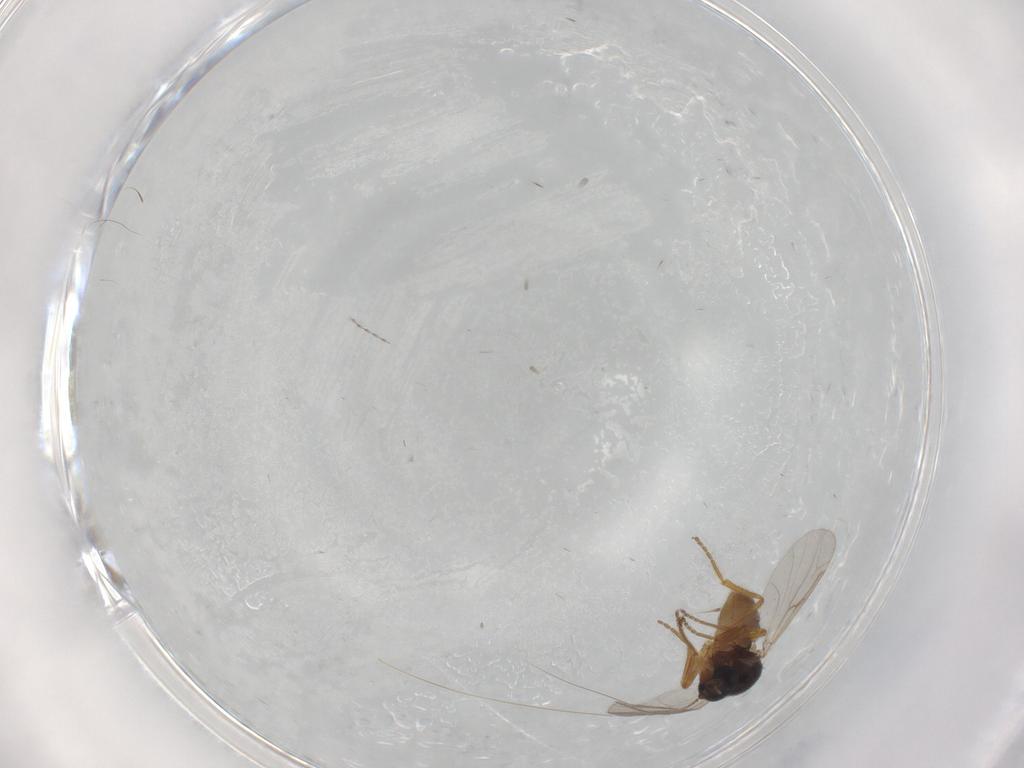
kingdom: Animalia
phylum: Arthropoda
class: Insecta
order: Diptera
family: Ceratopogonidae
